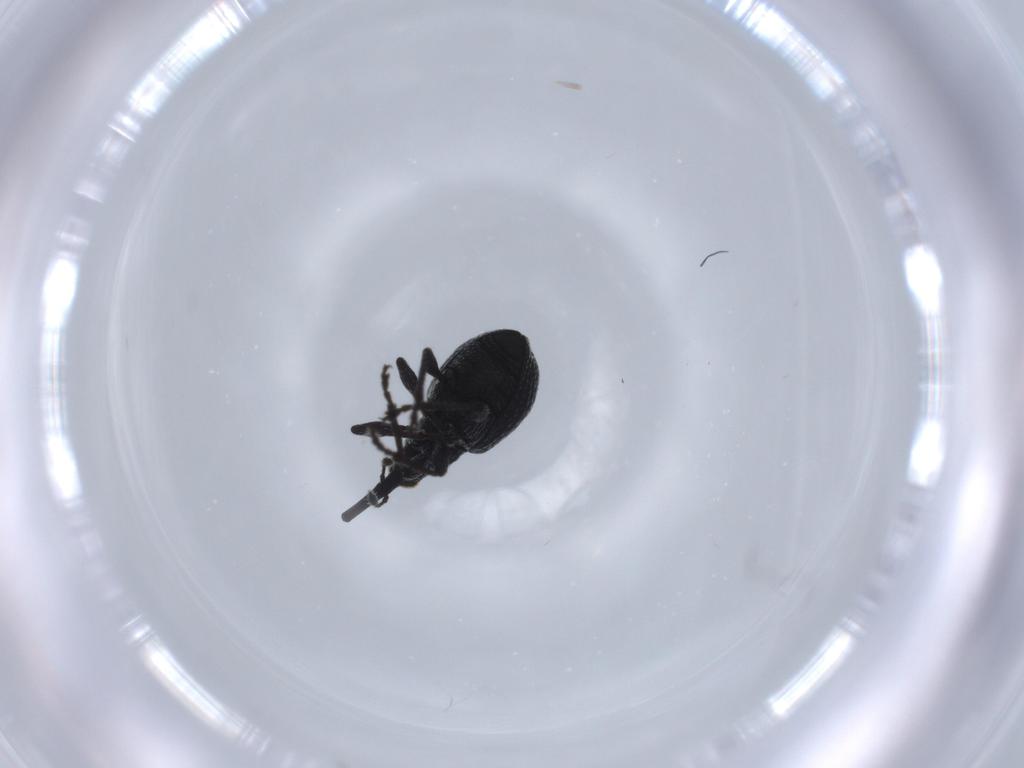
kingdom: Animalia
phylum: Arthropoda
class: Insecta
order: Coleoptera
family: Brentidae
